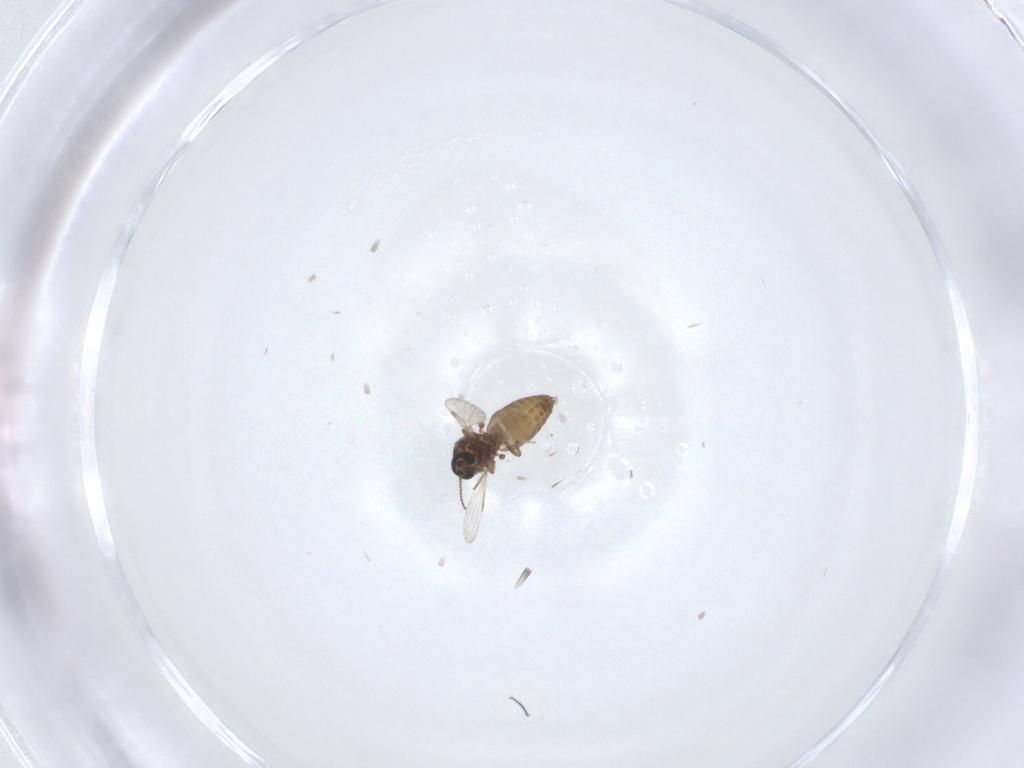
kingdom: Animalia
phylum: Arthropoda
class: Insecta
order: Diptera
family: Ceratopogonidae
